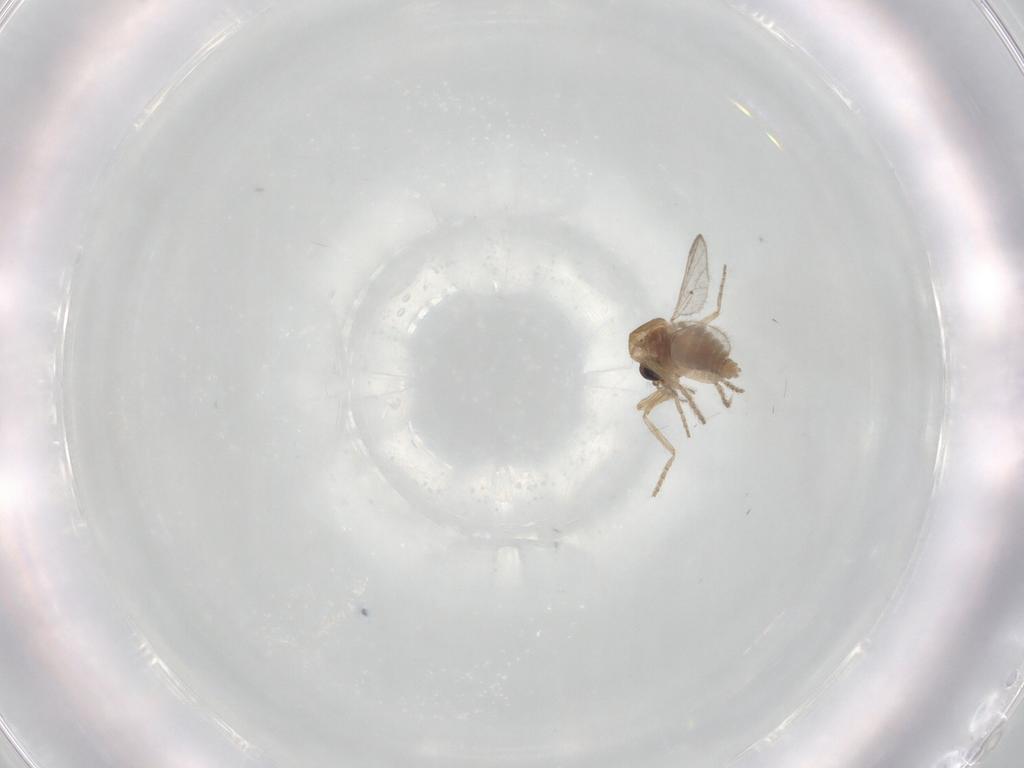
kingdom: Animalia
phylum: Arthropoda
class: Insecta
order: Diptera
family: Ceratopogonidae
